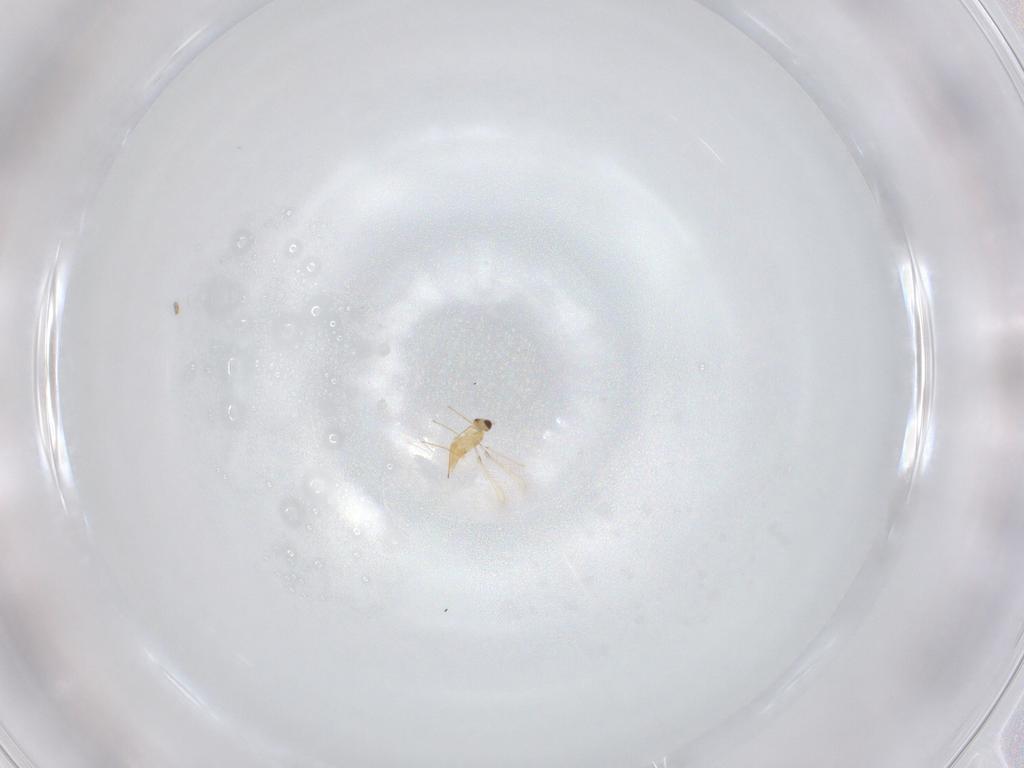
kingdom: Animalia
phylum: Arthropoda
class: Insecta
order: Hymenoptera
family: Mymaridae
